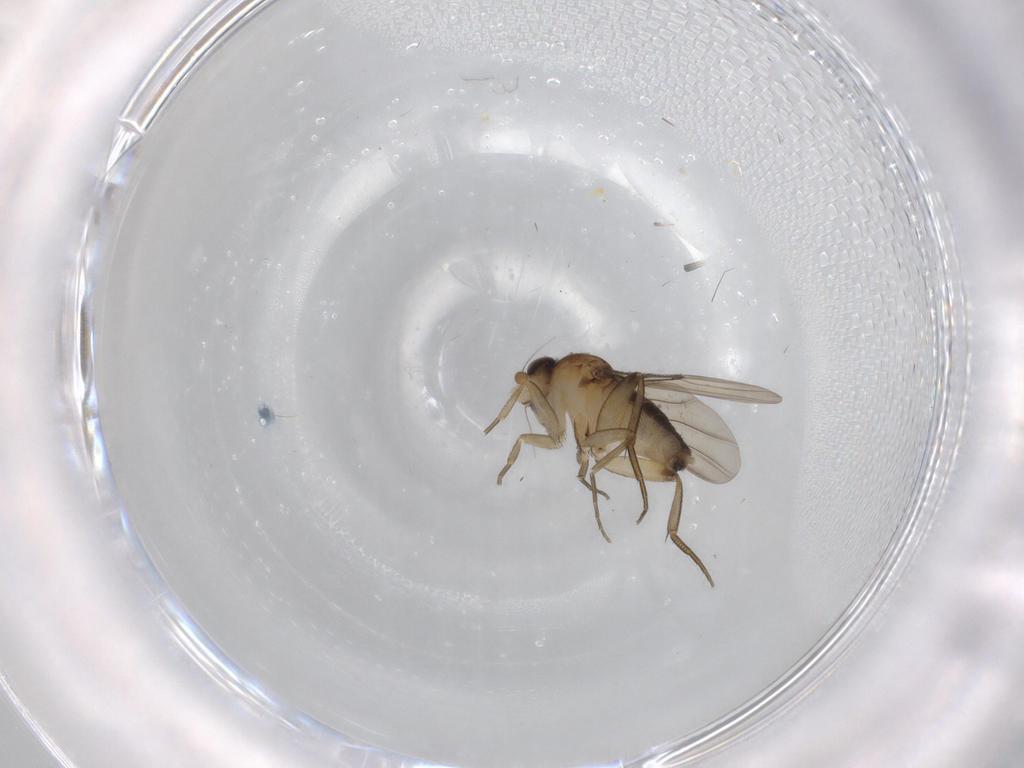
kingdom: Animalia
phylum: Arthropoda
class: Insecta
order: Diptera
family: Phoridae
